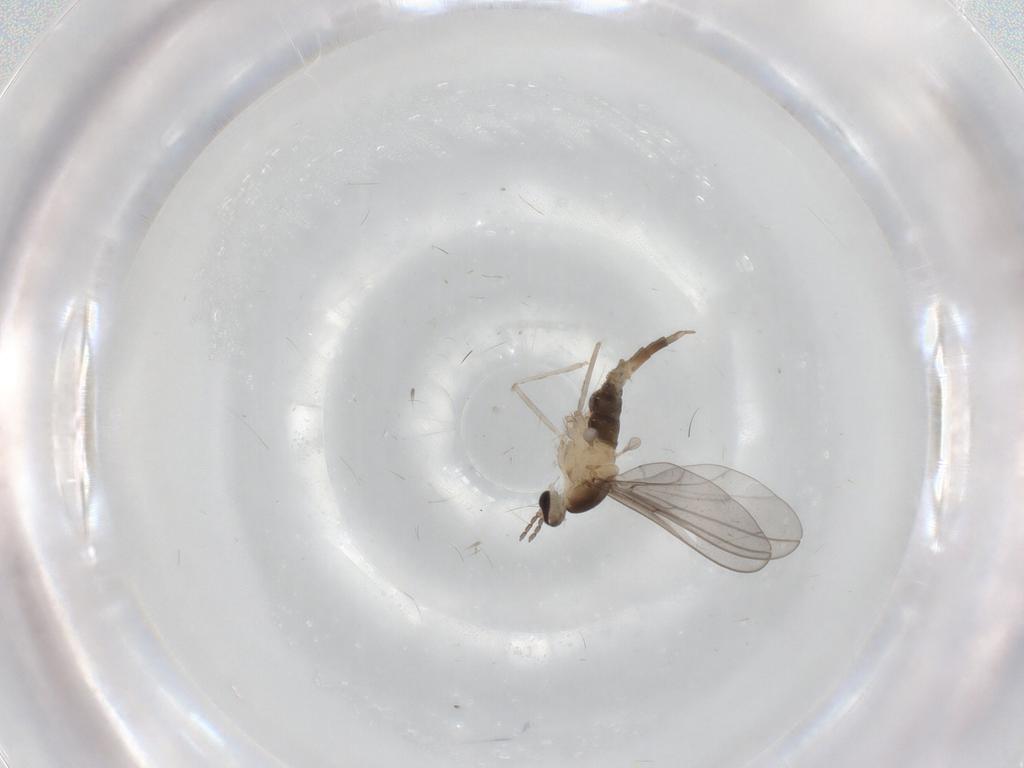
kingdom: Animalia
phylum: Arthropoda
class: Insecta
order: Diptera
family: Cecidomyiidae
